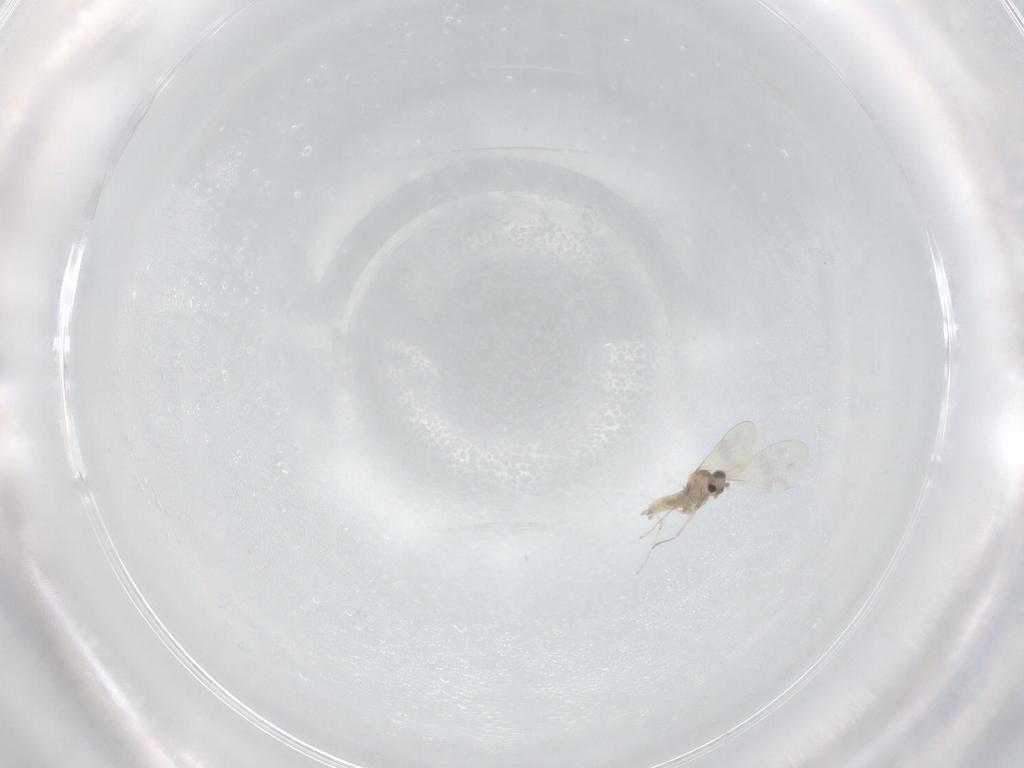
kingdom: Animalia
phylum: Arthropoda
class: Insecta
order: Diptera
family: Cecidomyiidae
